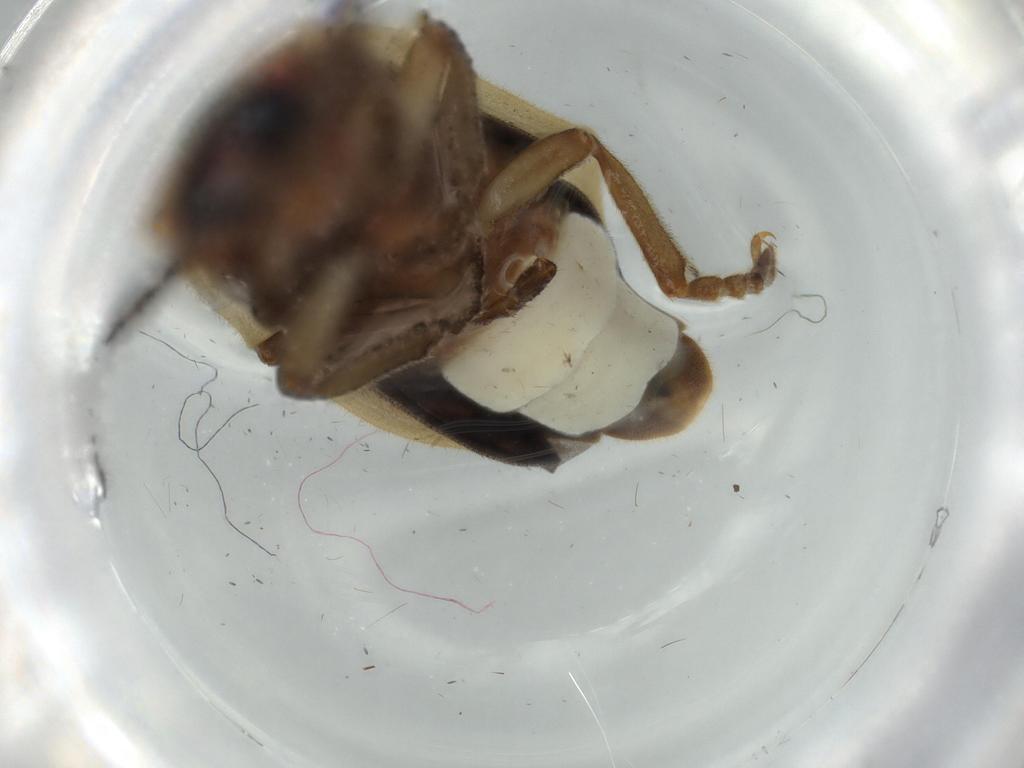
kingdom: Animalia
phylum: Arthropoda
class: Insecta
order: Coleoptera
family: Lampyridae
